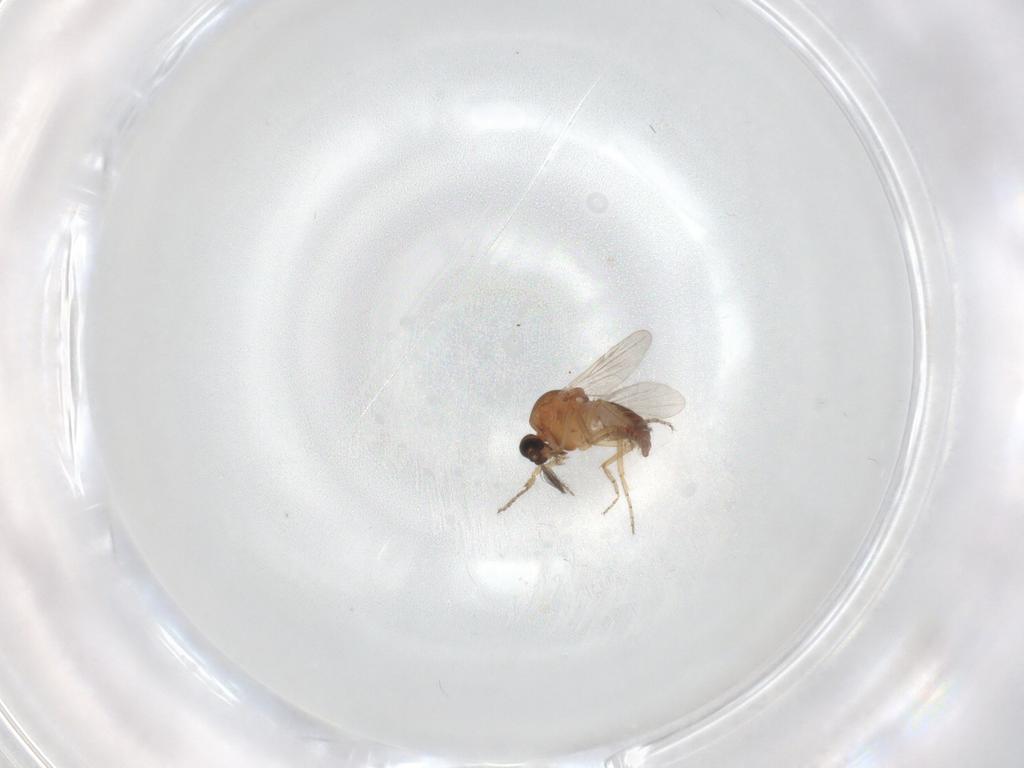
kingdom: Animalia
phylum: Arthropoda
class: Insecta
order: Diptera
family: Ceratopogonidae
